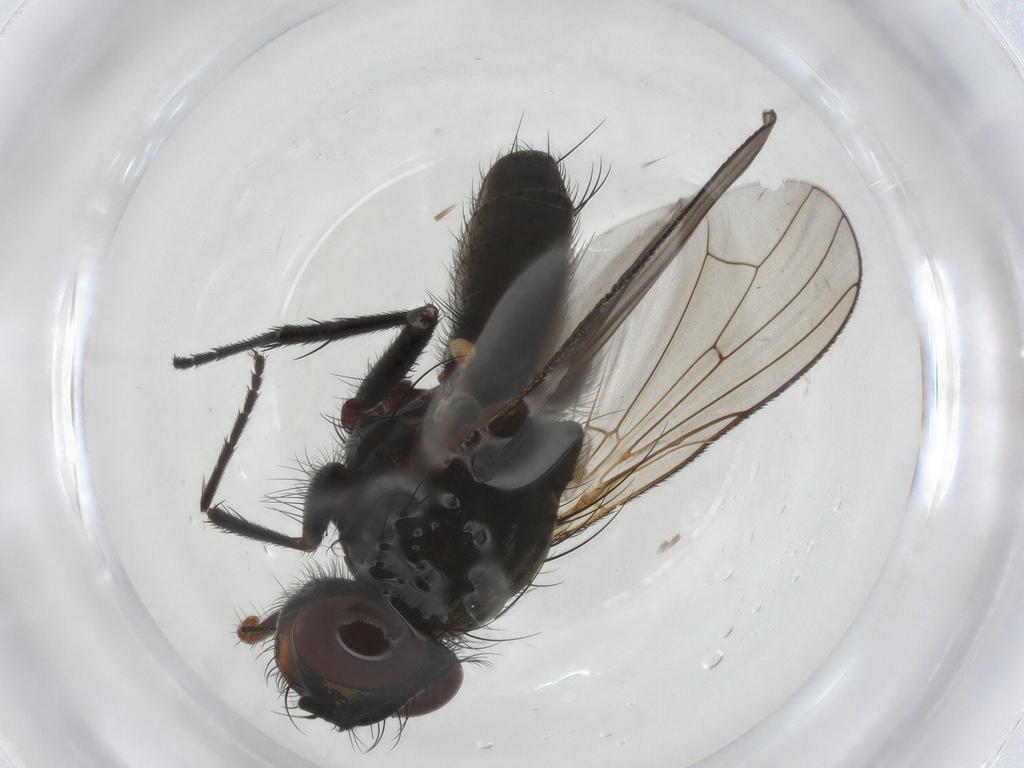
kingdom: Animalia
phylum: Arthropoda
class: Insecta
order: Diptera
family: Anthomyiidae
